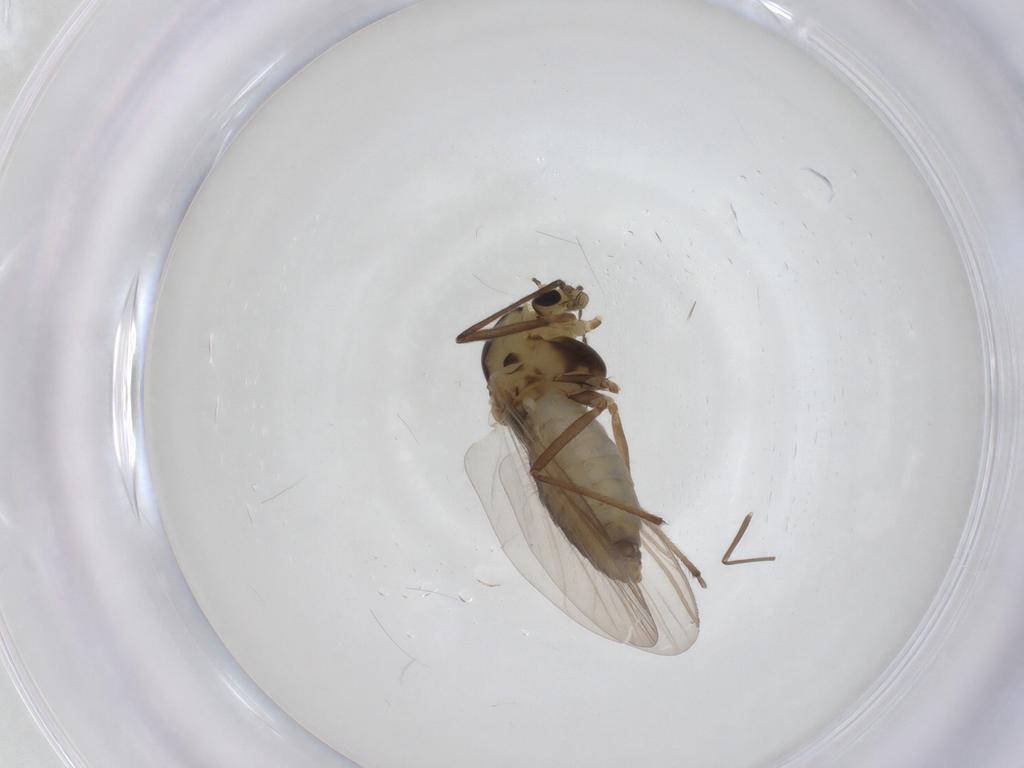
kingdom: Animalia
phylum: Arthropoda
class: Insecta
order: Diptera
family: Chironomidae
